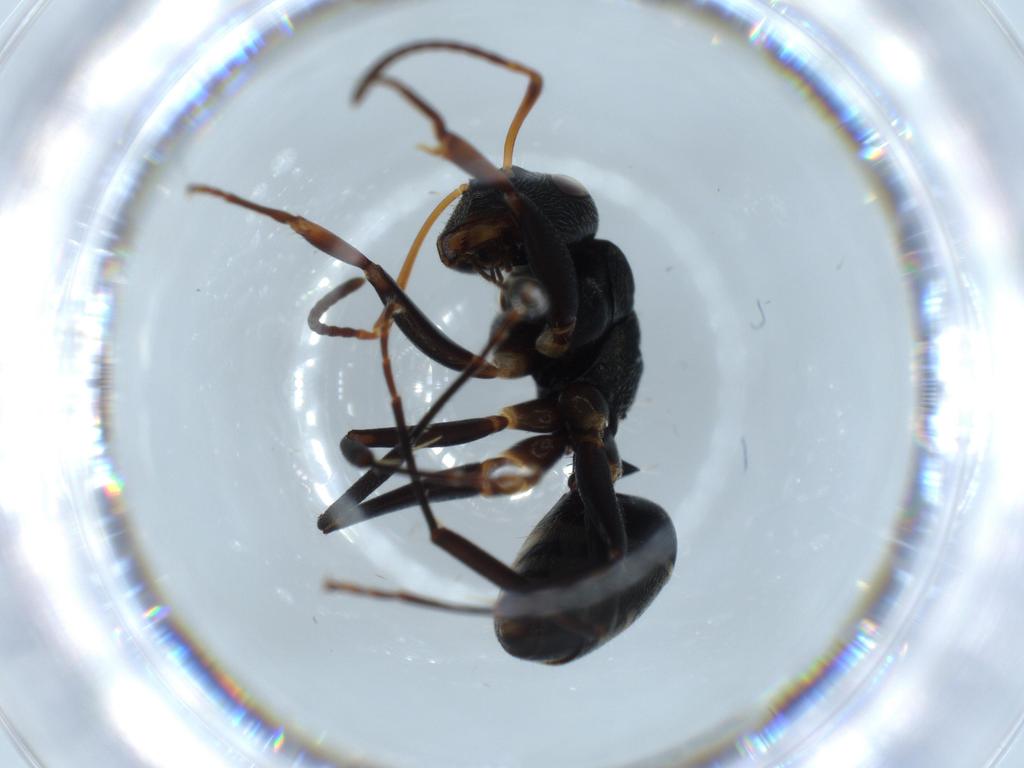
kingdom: Animalia
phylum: Arthropoda
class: Insecta
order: Hymenoptera
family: Formicidae
